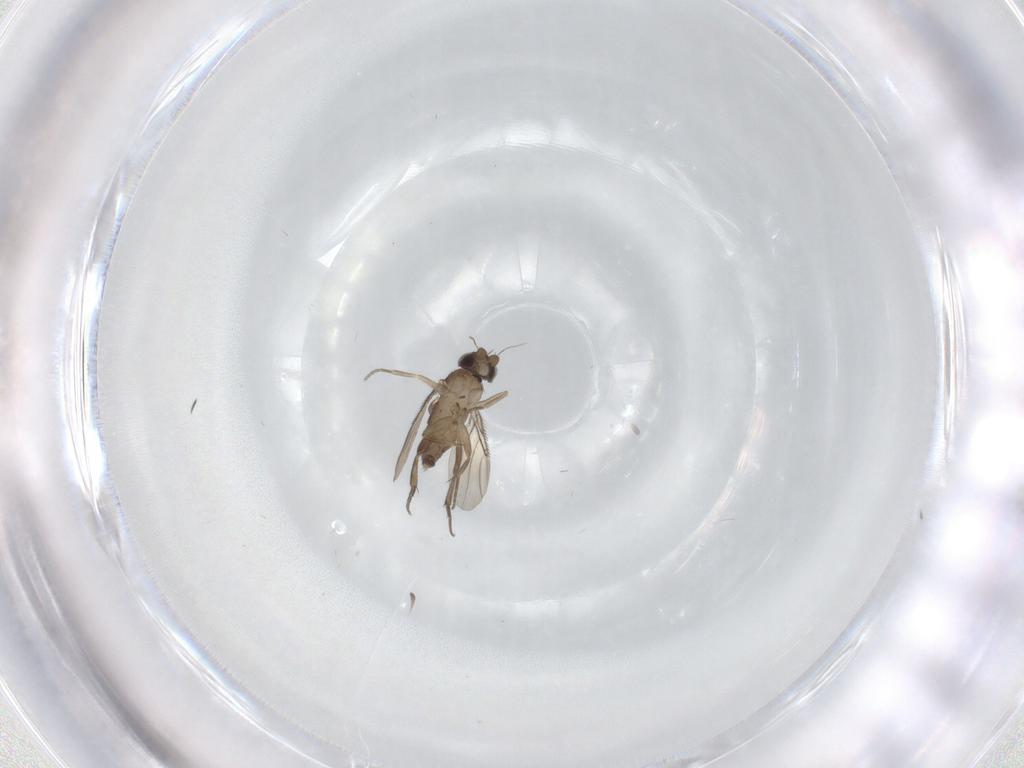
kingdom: Animalia
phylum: Arthropoda
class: Insecta
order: Diptera
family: Phoridae
